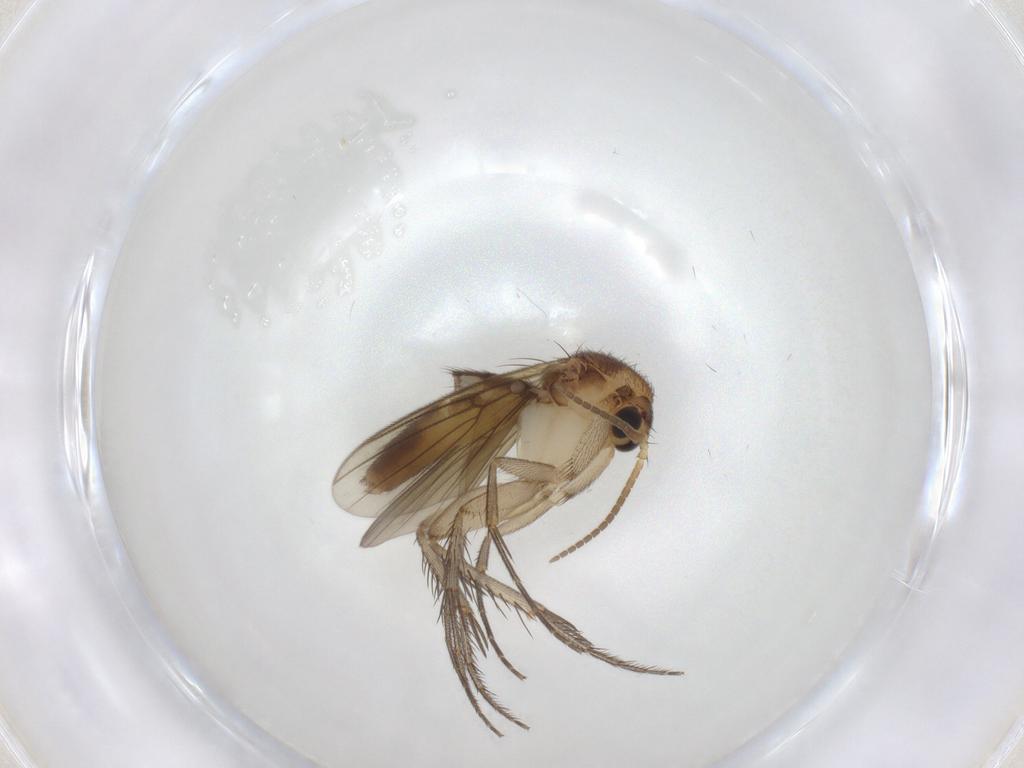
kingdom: Animalia
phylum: Arthropoda
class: Insecta
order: Diptera
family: Mycetophilidae
